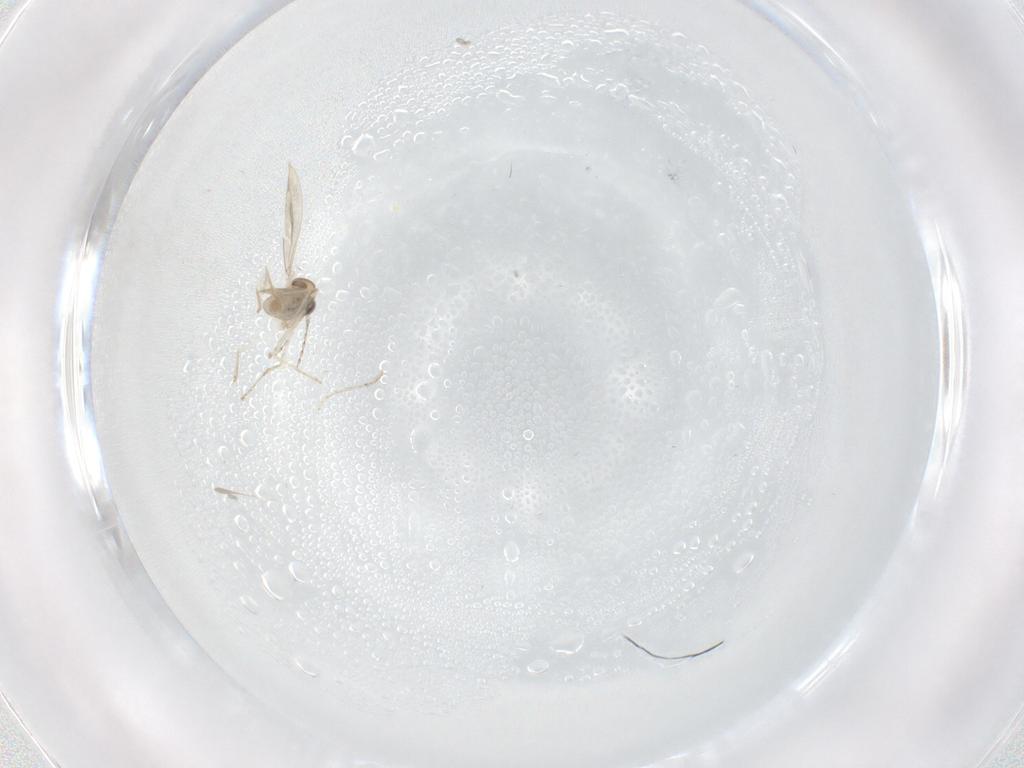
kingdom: Animalia
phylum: Arthropoda
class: Insecta
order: Diptera
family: Cecidomyiidae
